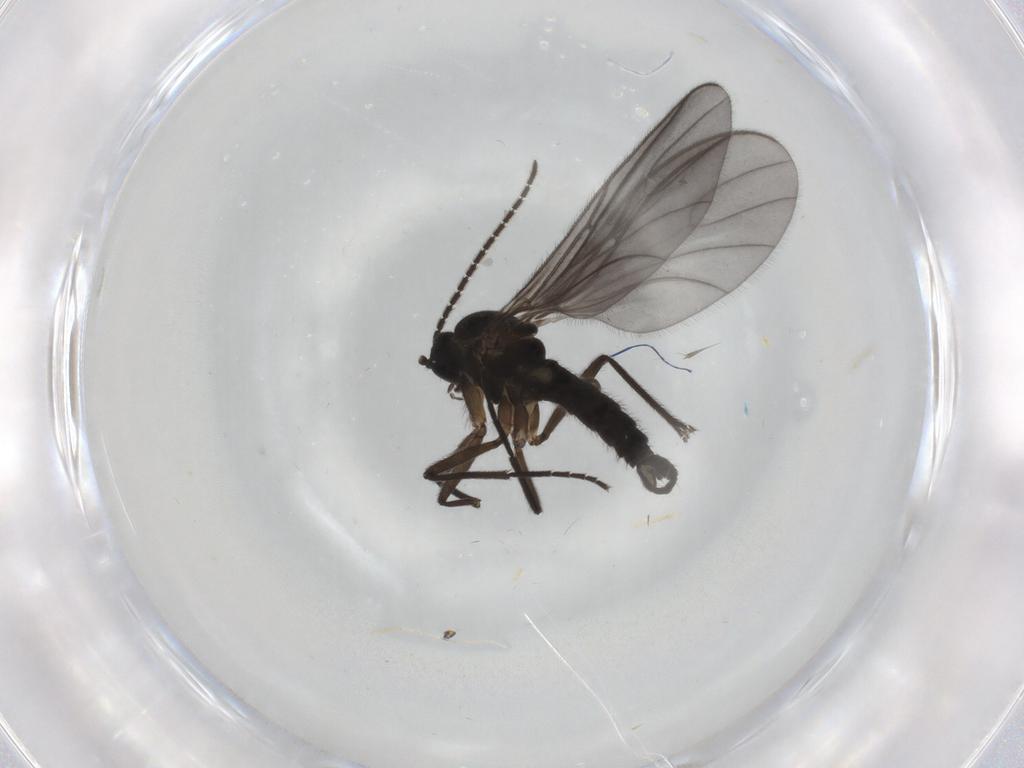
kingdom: Animalia
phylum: Arthropoda
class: Insecta
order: Diptera
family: Sciaridae
